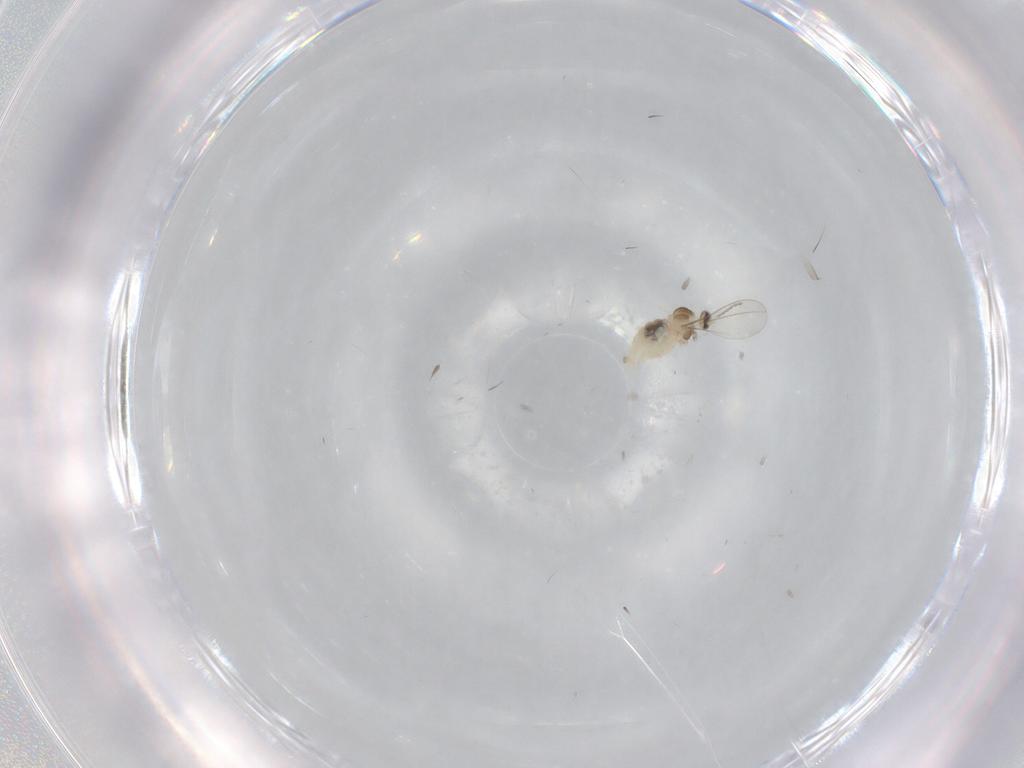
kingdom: Animalia
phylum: Arthropoda
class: Insecta
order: Diptera
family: Cecidomyiidae
